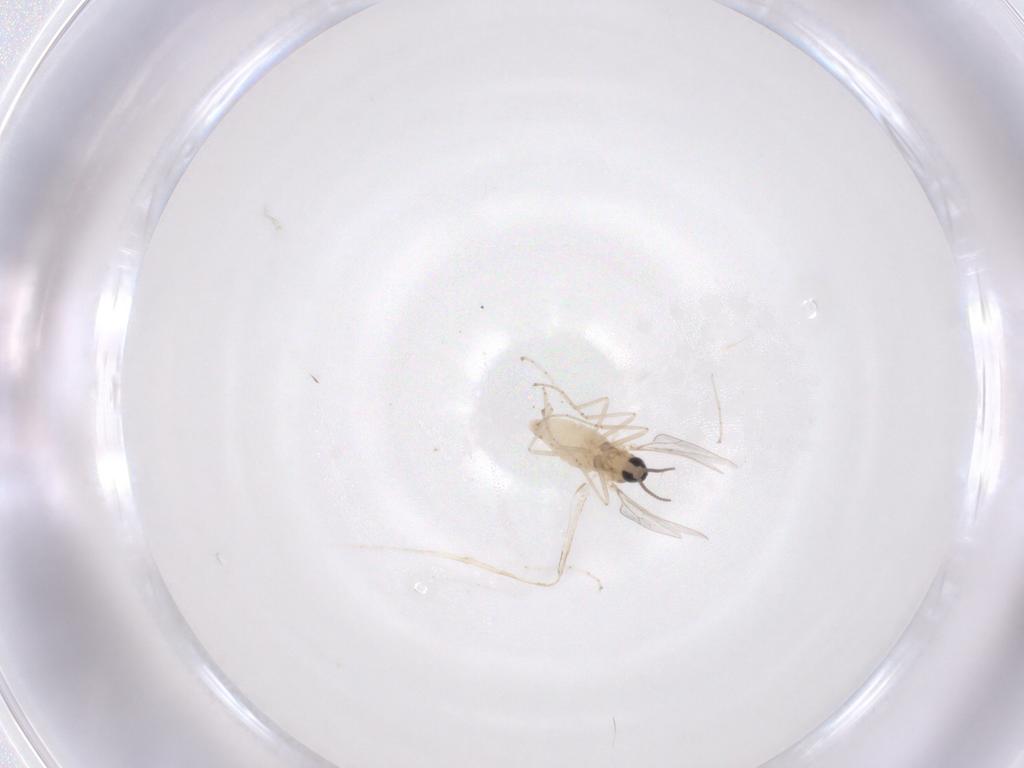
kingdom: Animalia
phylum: Arthropoda
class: Insecta
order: Diptera
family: Cecidomyiidae
